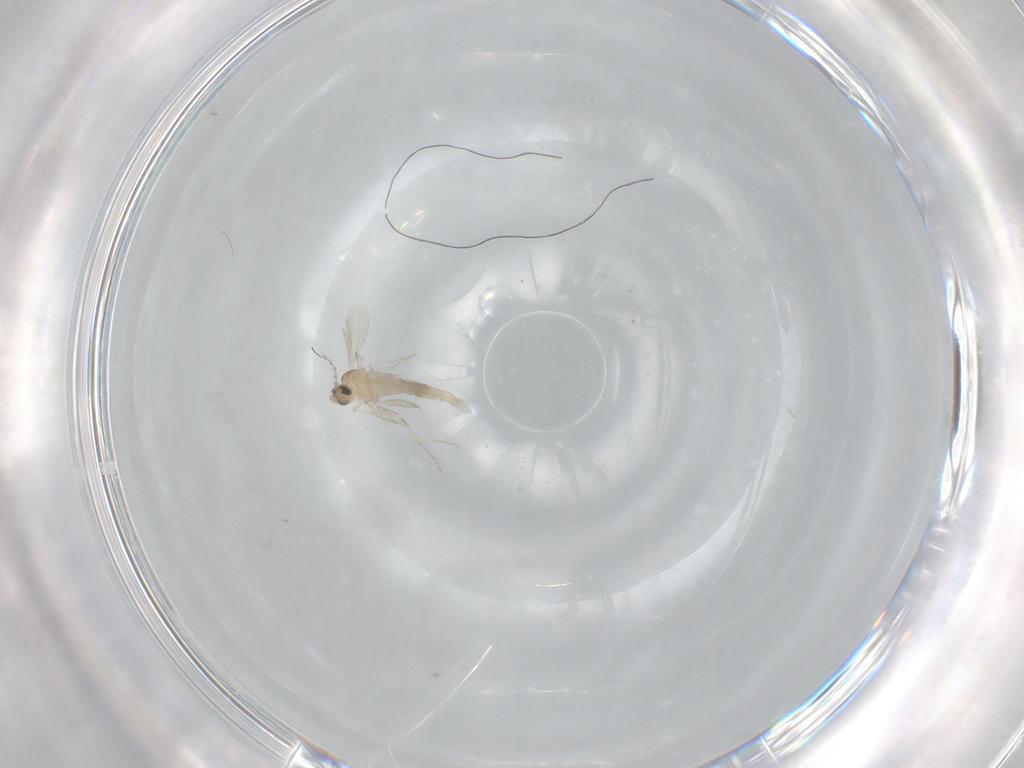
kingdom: Animalia
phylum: Arthropoda
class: Insecta
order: Diptera
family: Cecidomyiidae
